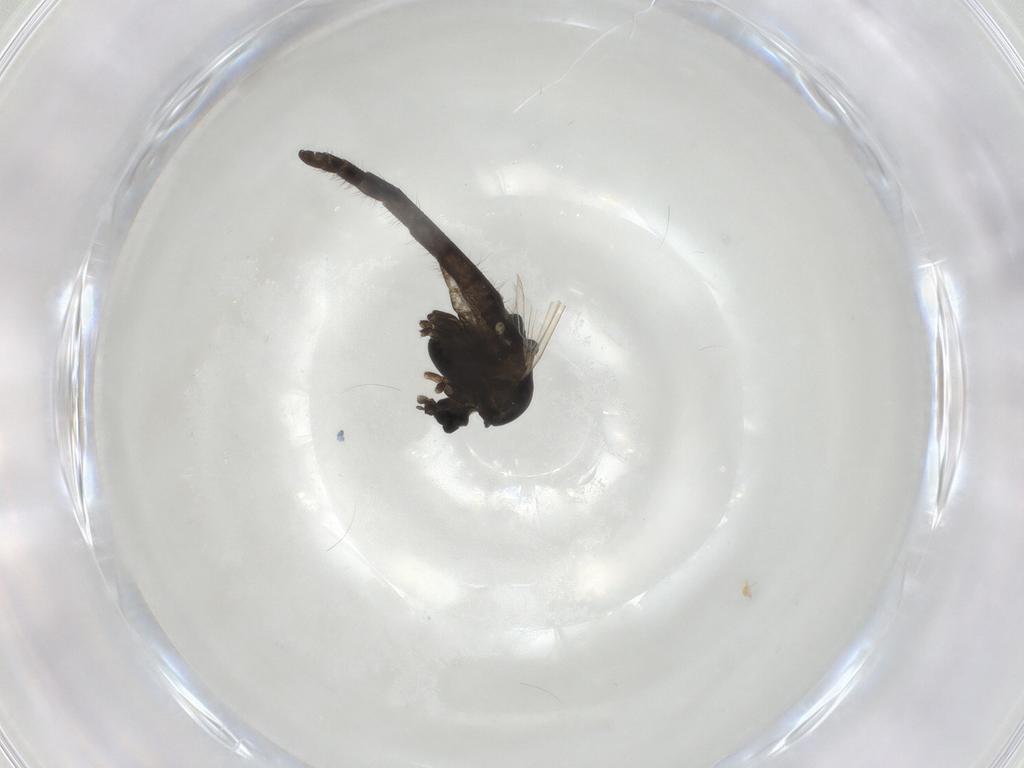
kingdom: Animalia
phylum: Arthropoda
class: Insecta
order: Diptera
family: Chironomidae
